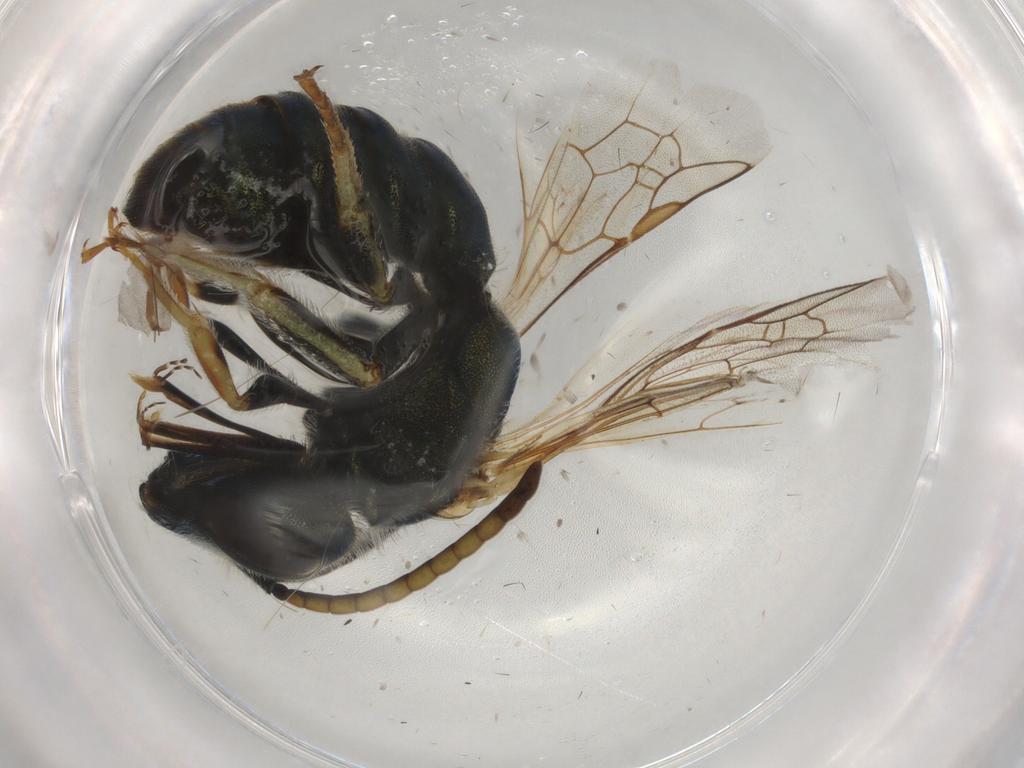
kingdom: Animalia
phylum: Arthropoda
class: Insecta
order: Hymenoptera
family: Halictidae
